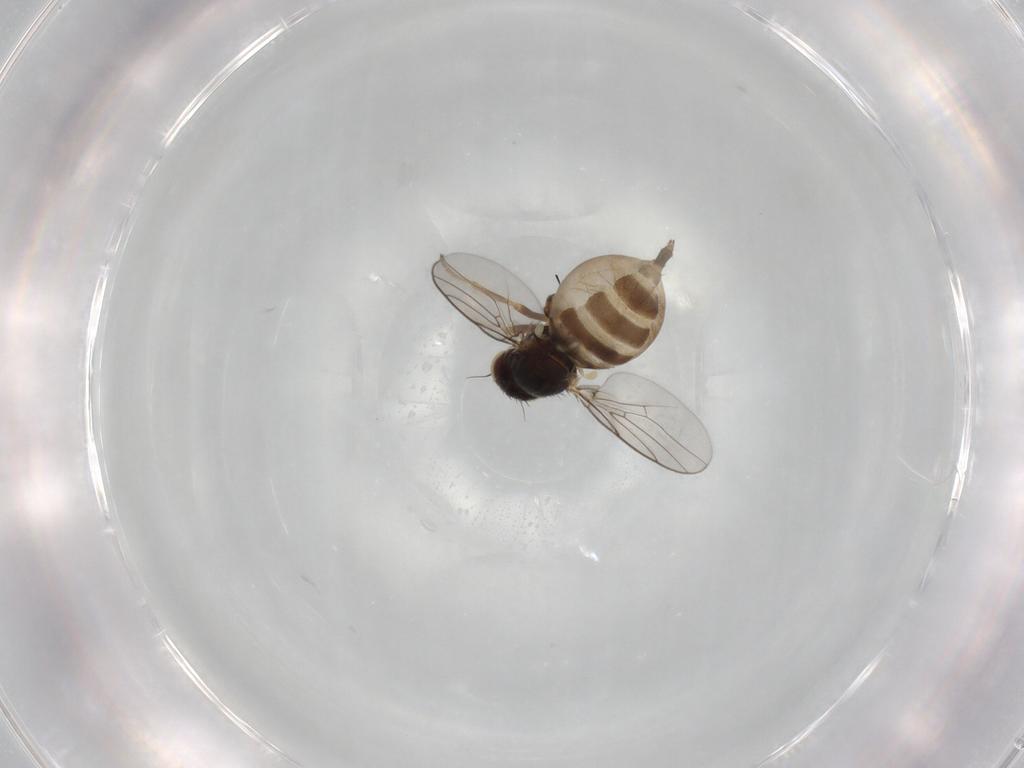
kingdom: Animalia
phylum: Arthropoda
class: Insecta
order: Diptera
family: Chloropidae
